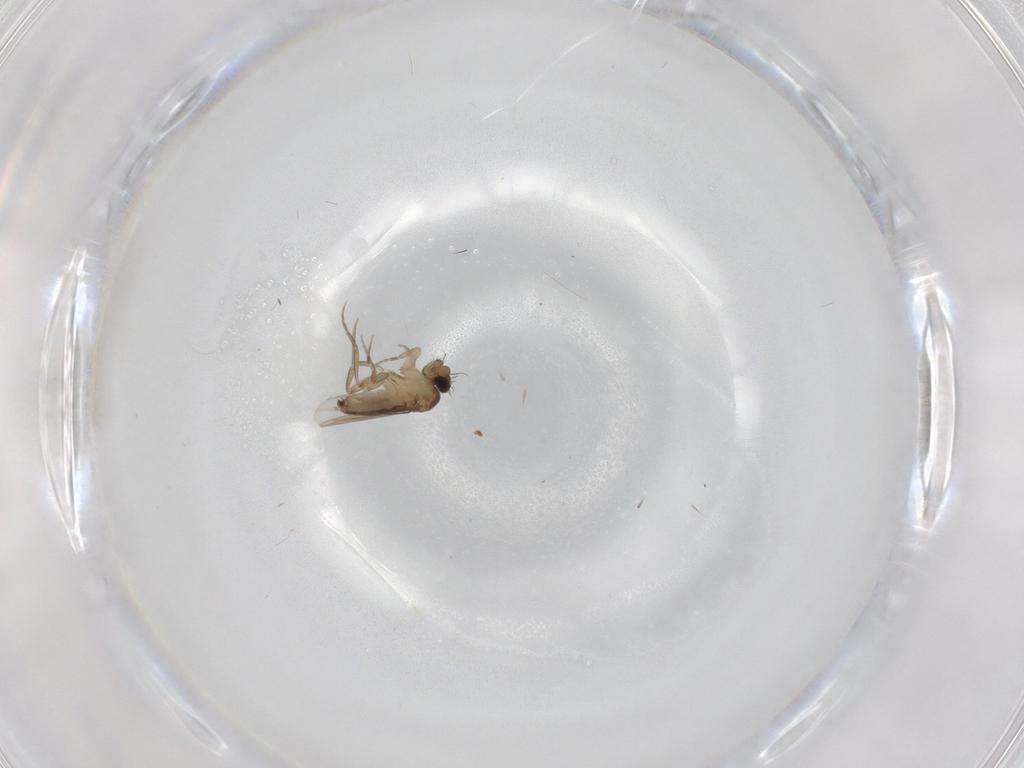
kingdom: Animalia
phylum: Arthropoda
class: Insecta
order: Diptera
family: Phoridae
